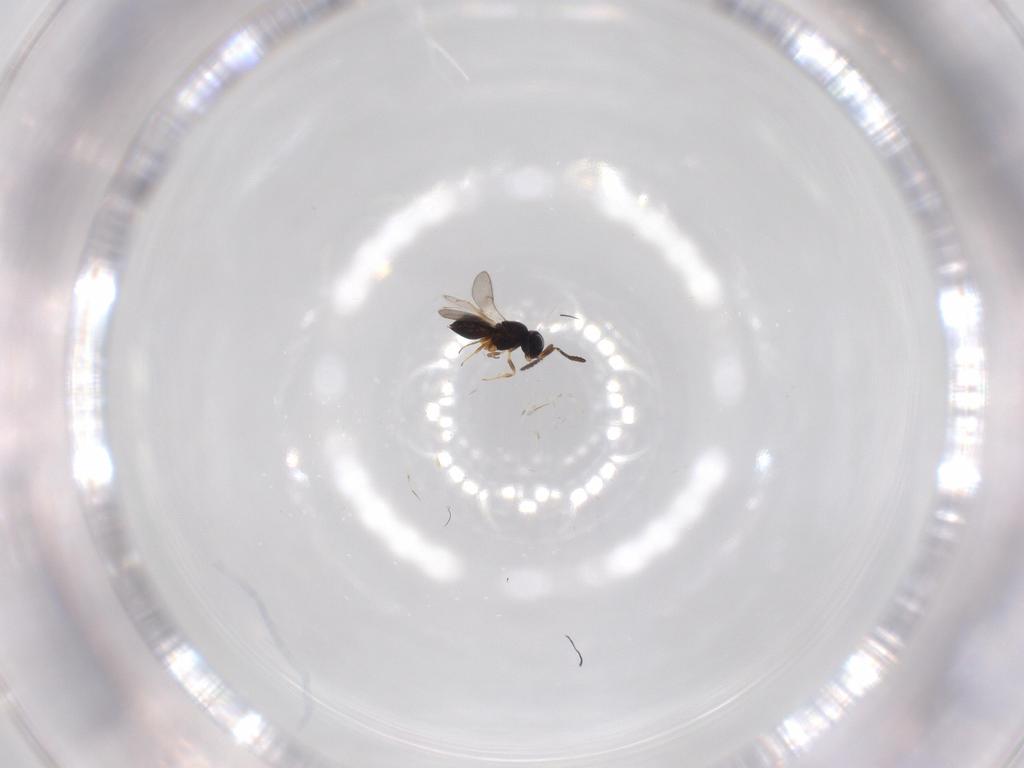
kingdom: Animalia
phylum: Arthropoda
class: Insecta
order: Hymenoptera
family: Scelionidae
